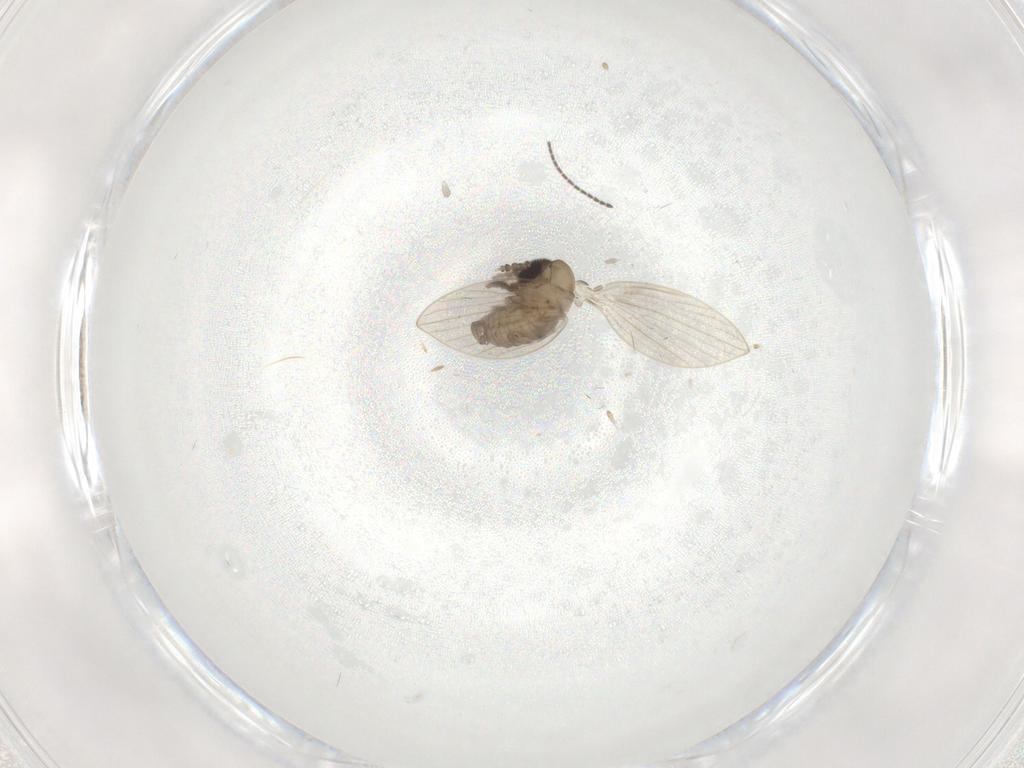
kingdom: Animalia
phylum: Arthropoda
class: Insecta
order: Diptera
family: Psychodidae
